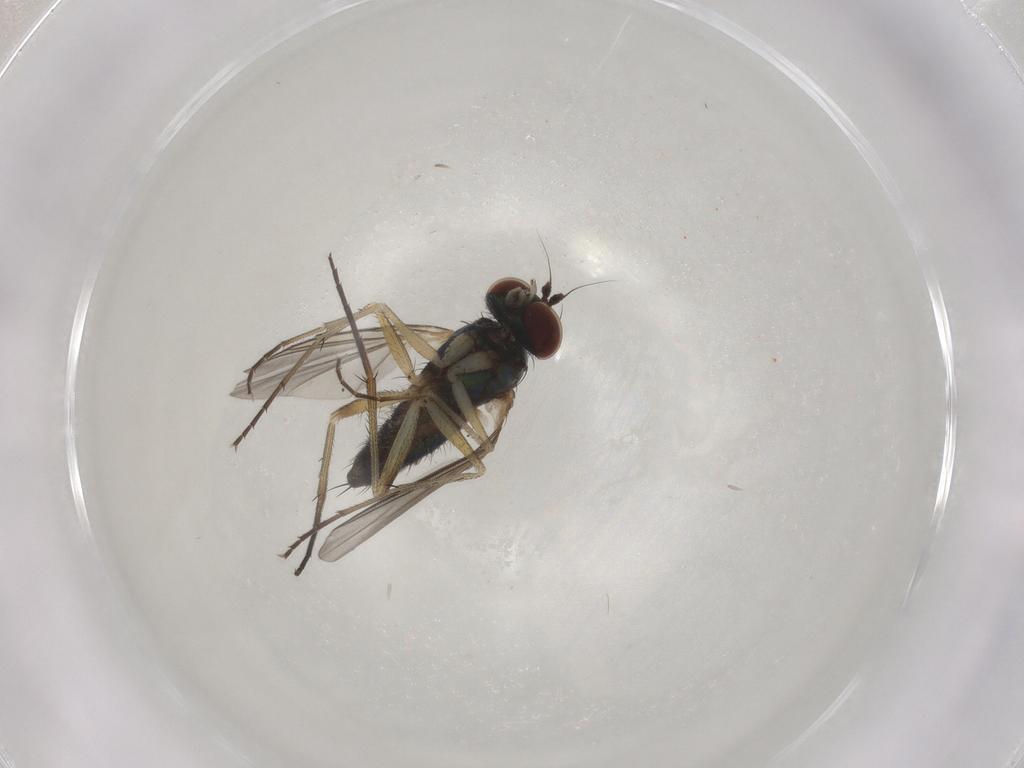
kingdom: Animalia
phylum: Arthropoda
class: Insecta
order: Diptera
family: Dolichopodidae
